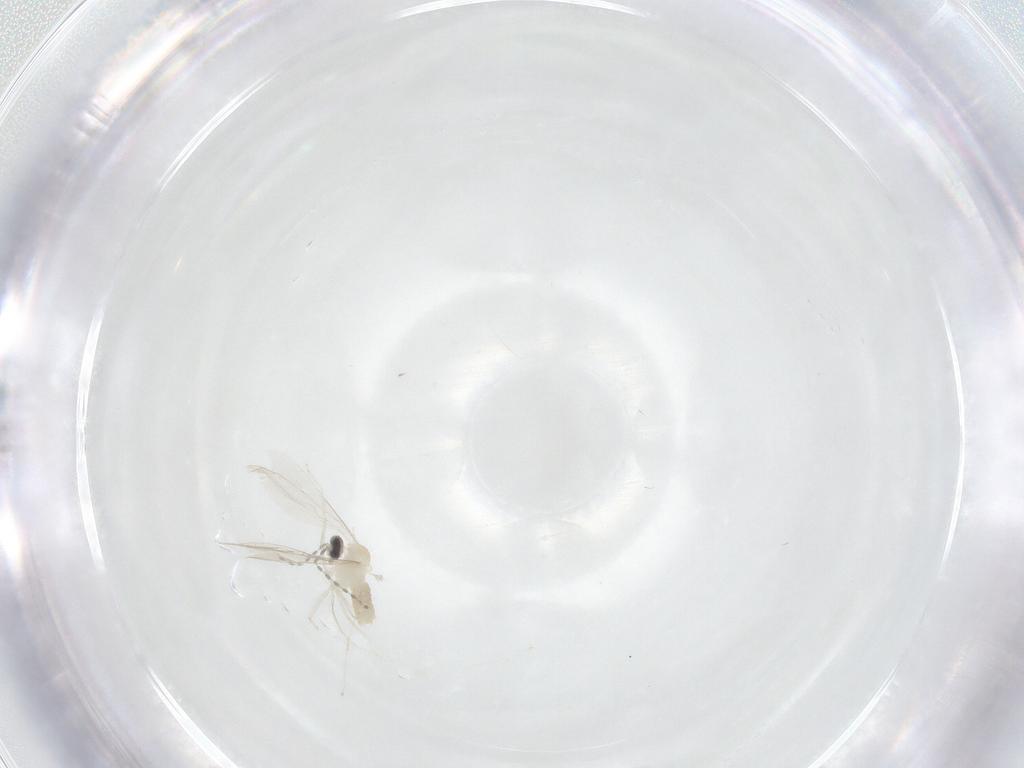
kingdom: Animalia
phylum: Arthropoda
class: Insecta
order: Diptera
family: Cecidomyiidae
